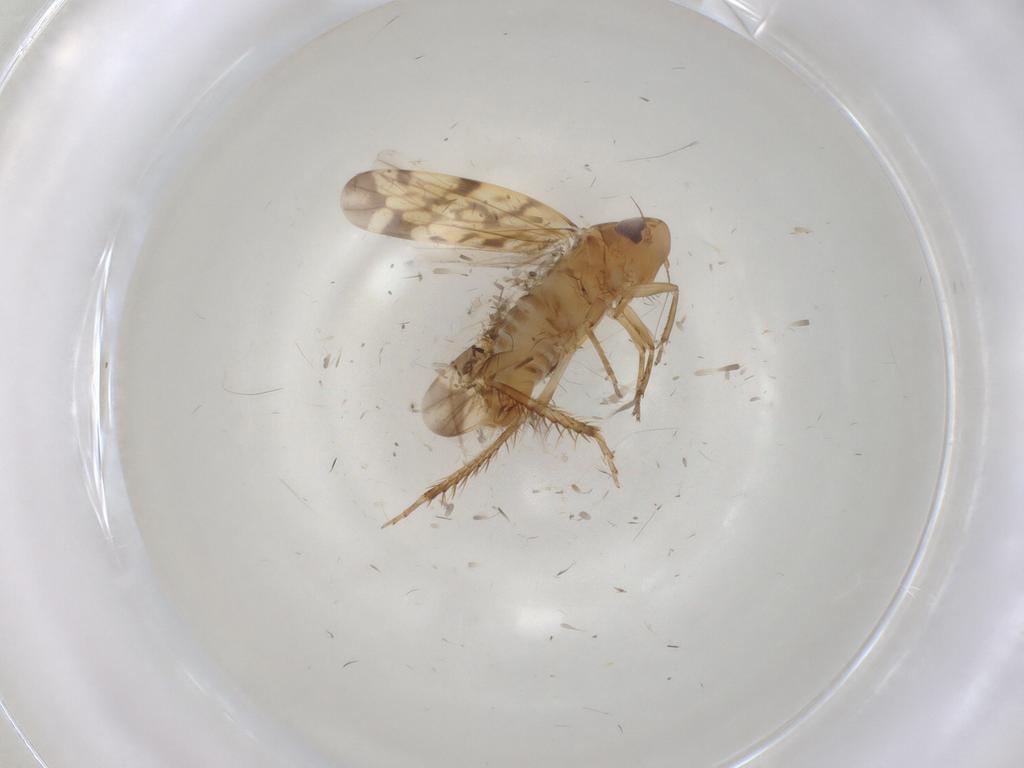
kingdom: Animalia
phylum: Arthropoda
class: Insecta
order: Hemiptera
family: Cicadellidae
